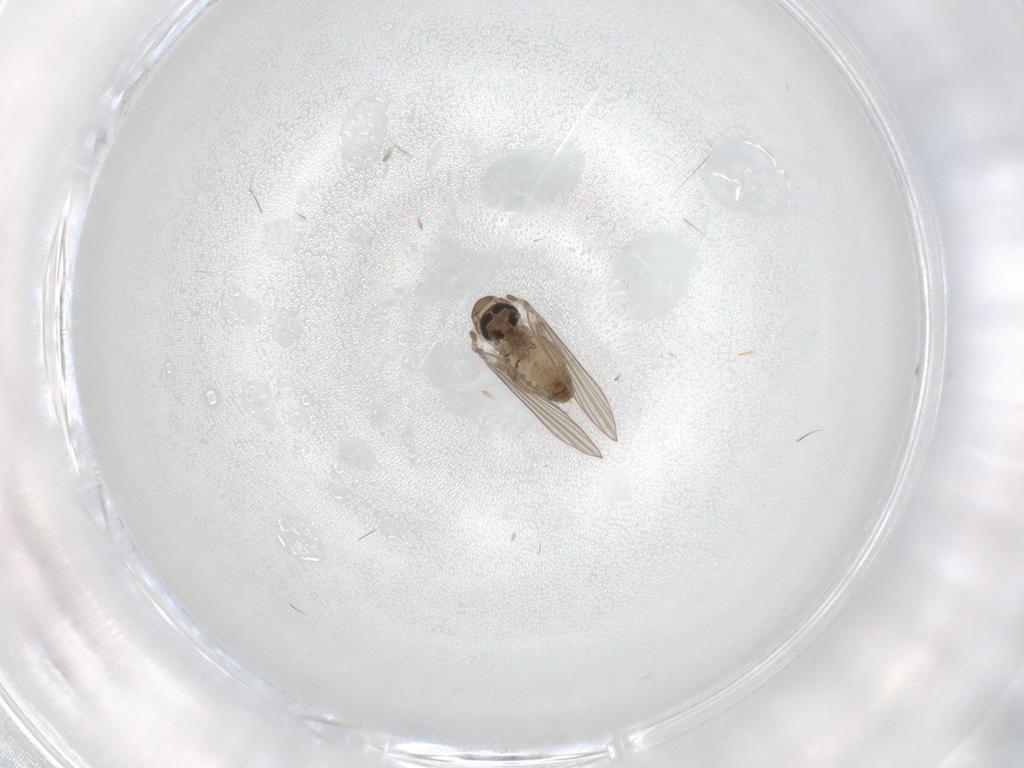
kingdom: Animalia
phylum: Arthropoda
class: Insecta
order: Diptera
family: Psychodidae
